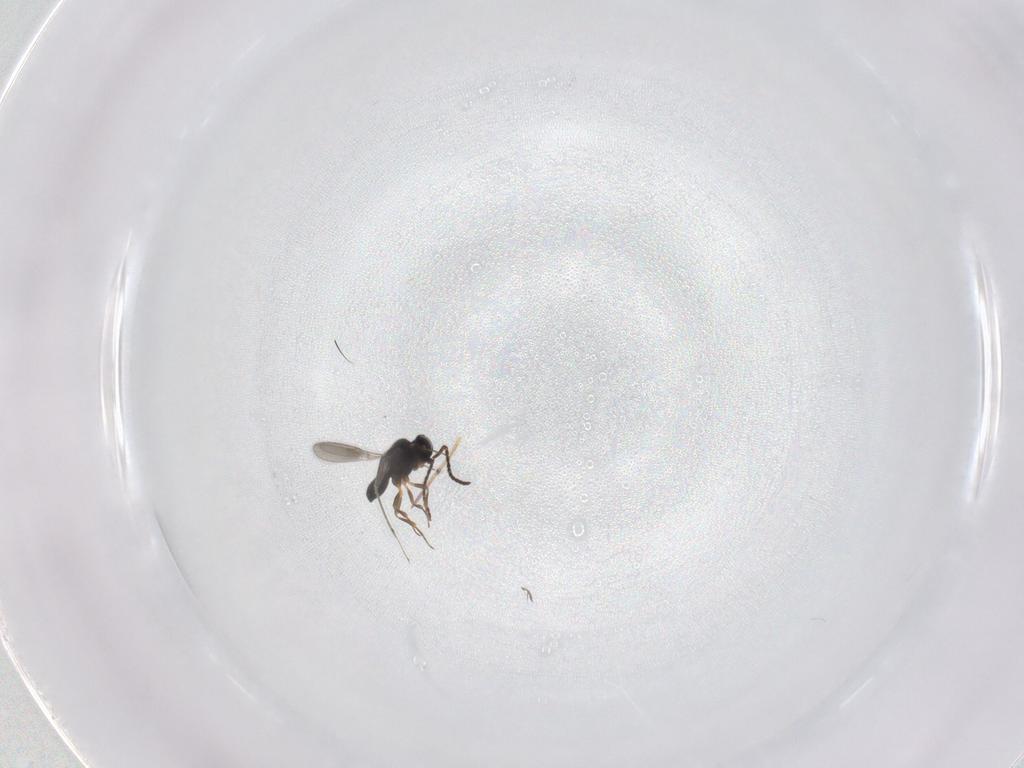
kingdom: Animalia
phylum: Arthropoda
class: Insecta
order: Hymenoptera
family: Scelionidae
